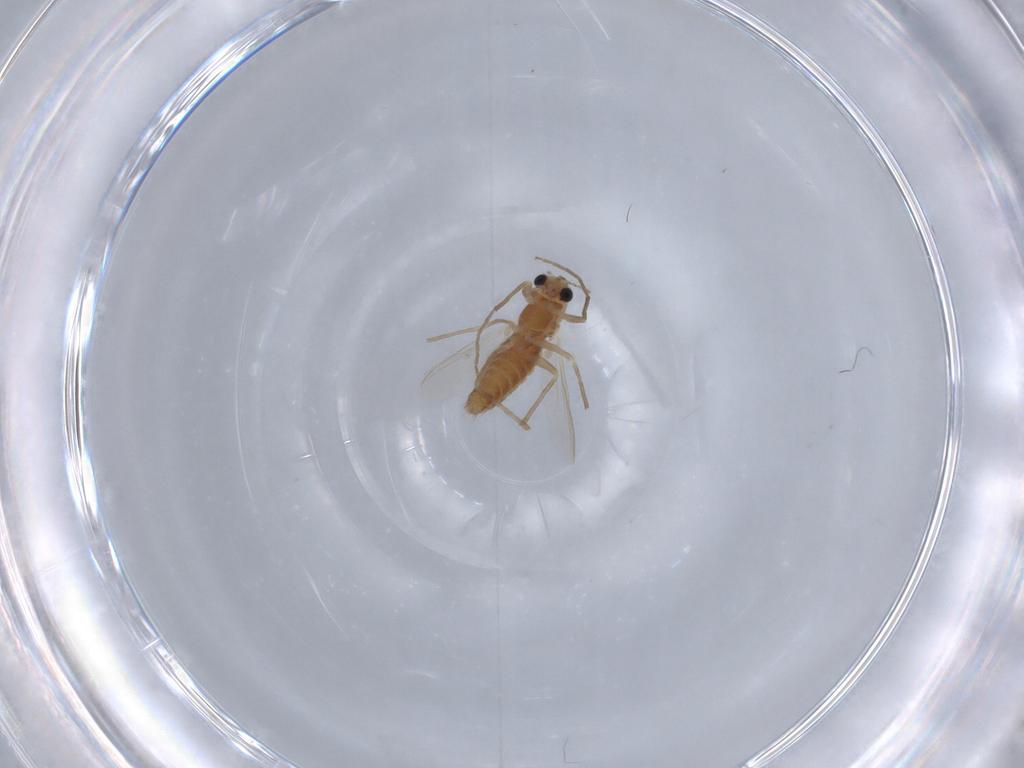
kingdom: Animalia
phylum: Arthropoda
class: Insecta
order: Diptera
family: Chironomidae
